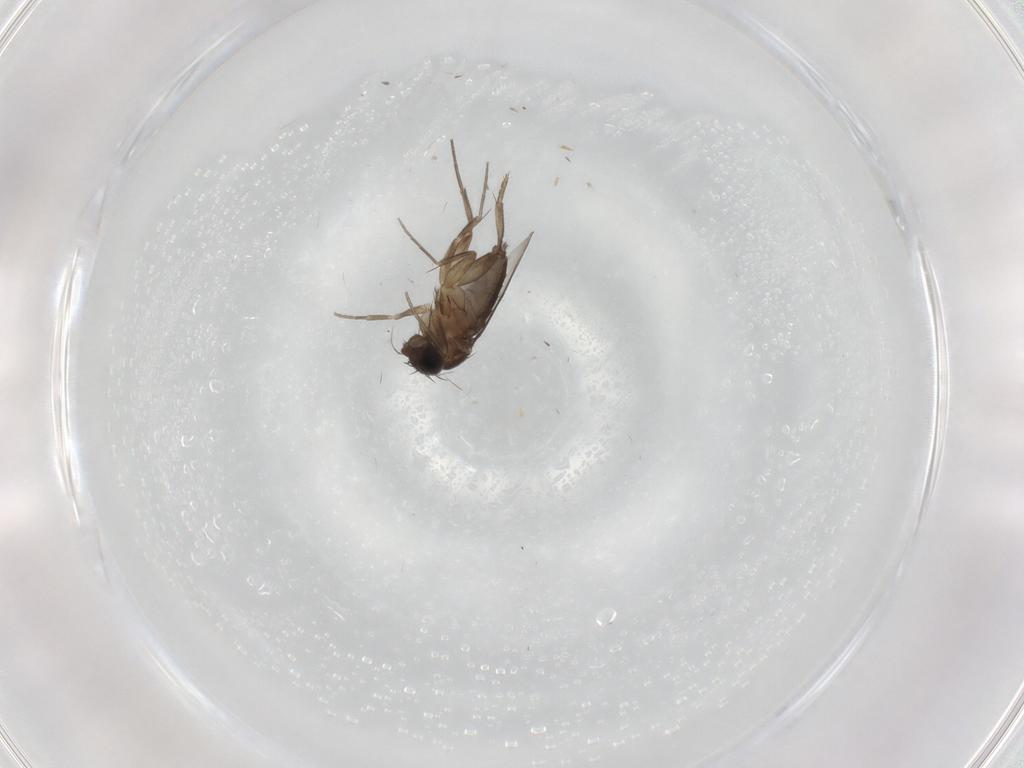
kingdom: Animalia
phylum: Arthropoda
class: Insecta
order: Diptera
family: Phoridae
